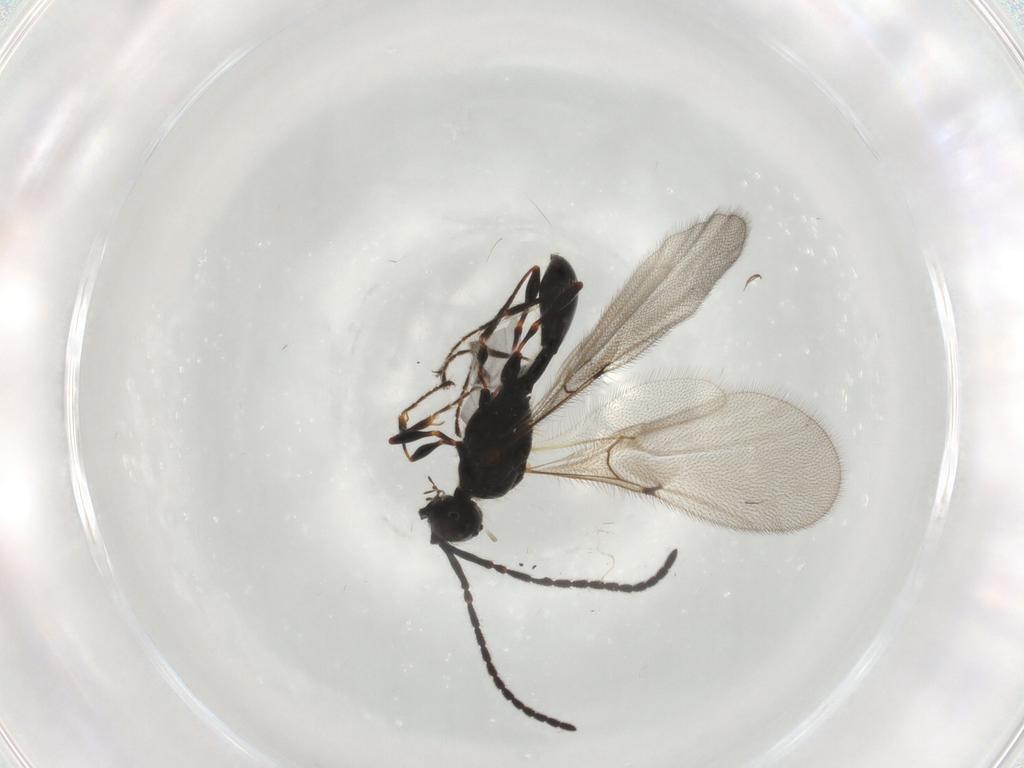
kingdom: Animalia
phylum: Arthropoda
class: Insecta
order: Hymenoptera
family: Diapriidae
